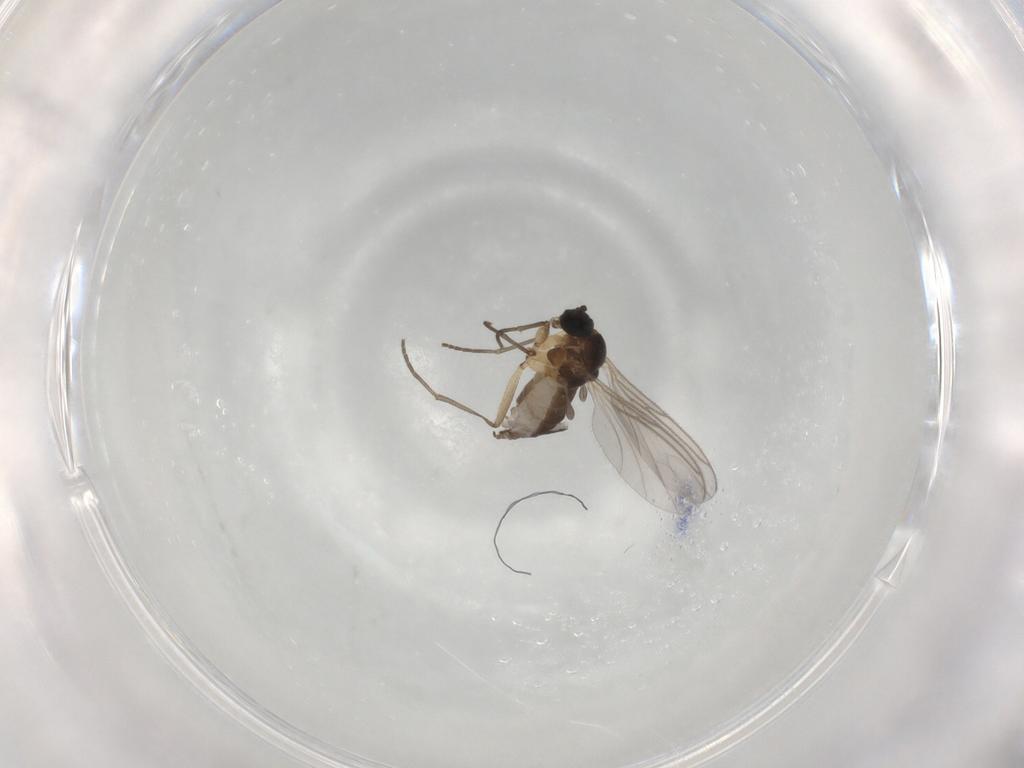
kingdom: Animalia
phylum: Arthropoda
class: Insecta
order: Diptera
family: Sciaridae
